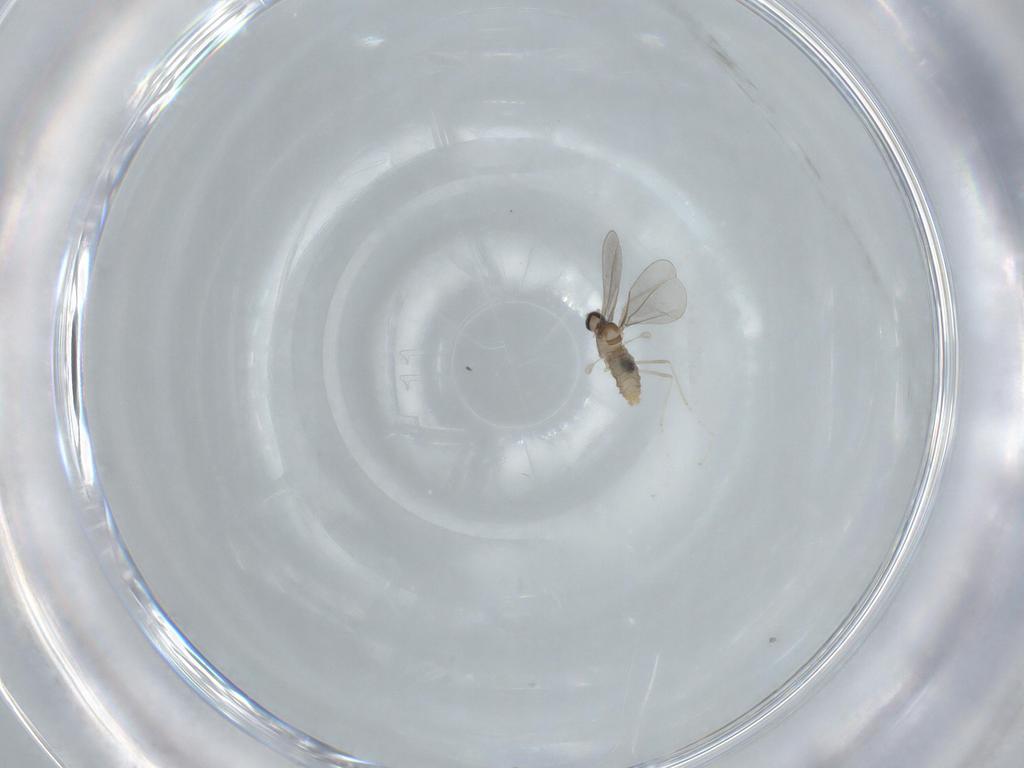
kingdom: Animalia
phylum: Arthropoda
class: Insecta
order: Diptera
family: Cecidomyiidae
